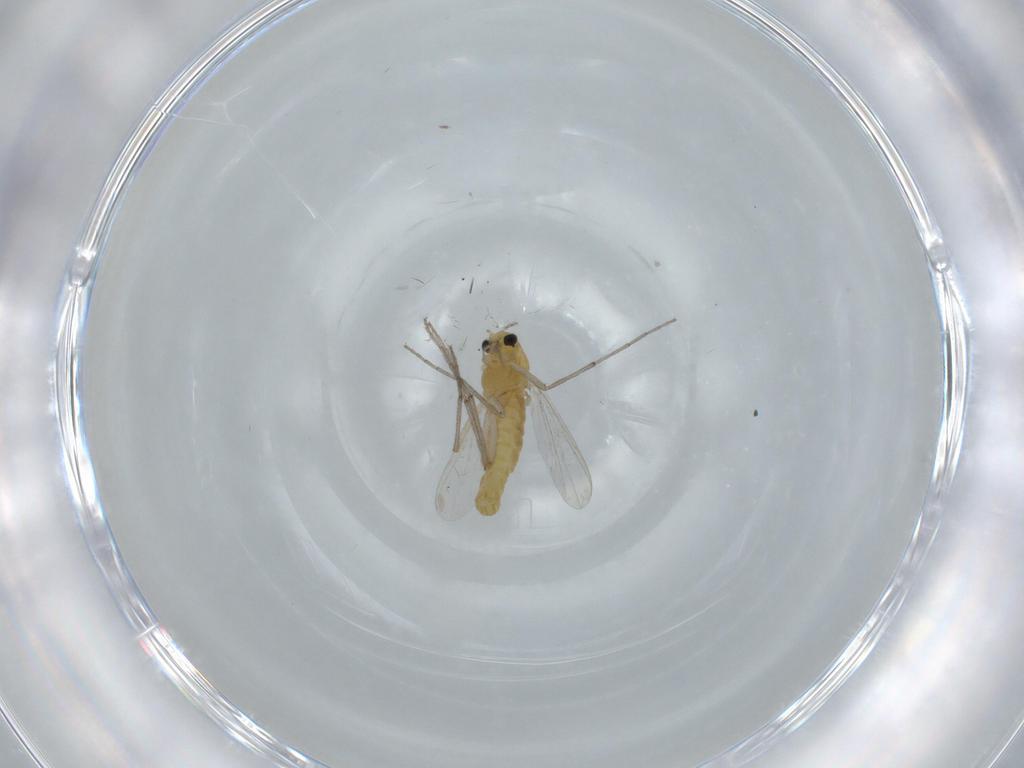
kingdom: Animalia
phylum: Arthropoda
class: Insecta
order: Diptera
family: Chironomidae
